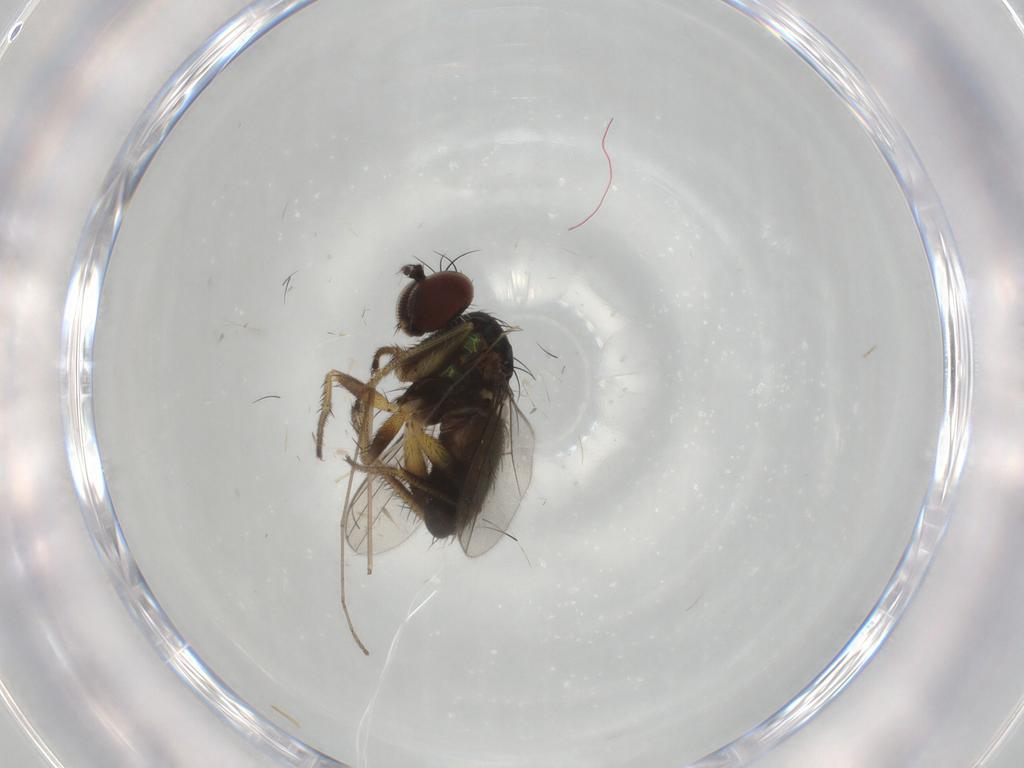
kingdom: Animalia
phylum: Arthropoda
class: Insecta
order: Diptera
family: Dolichopodidae
